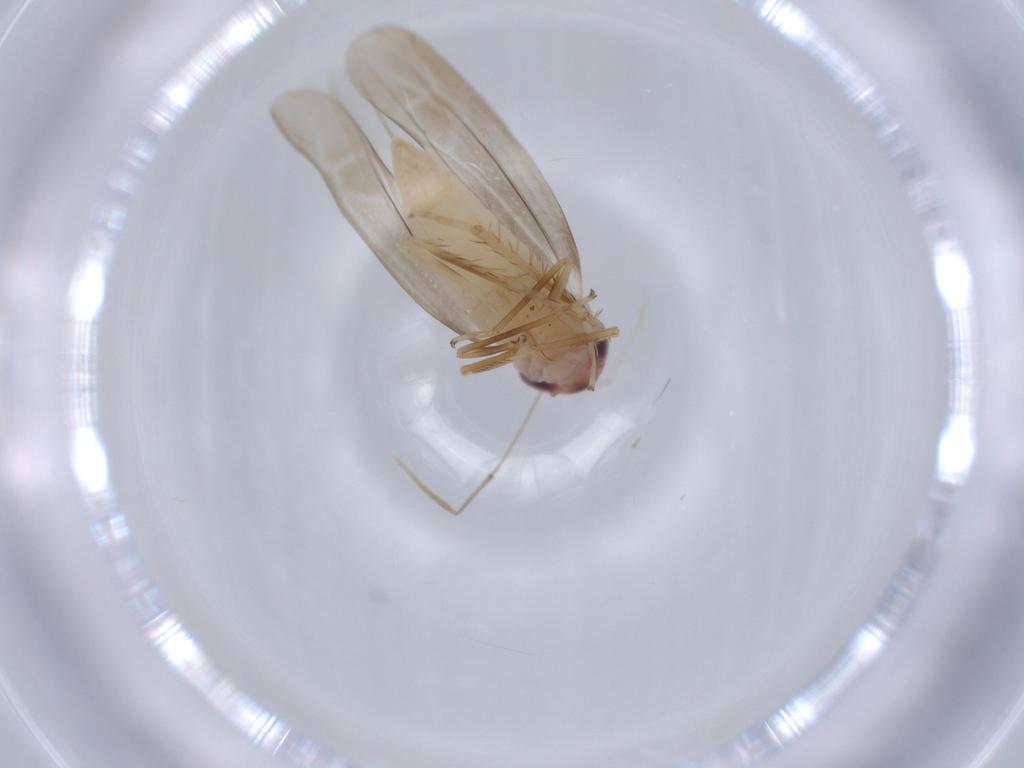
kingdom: Animalia
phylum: Arthropoda
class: Insecta
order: Hemiptera
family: Cicadellidae
